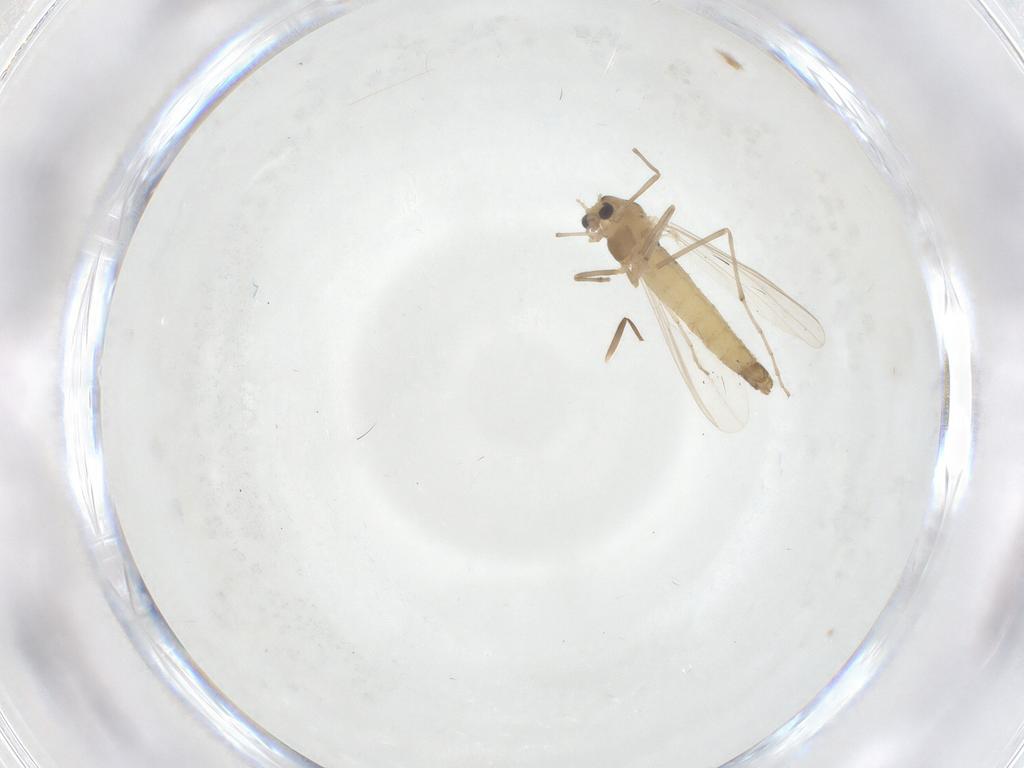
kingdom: Animalia
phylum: Arthropoda
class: Insecta
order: Diptera
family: Chironomidae
